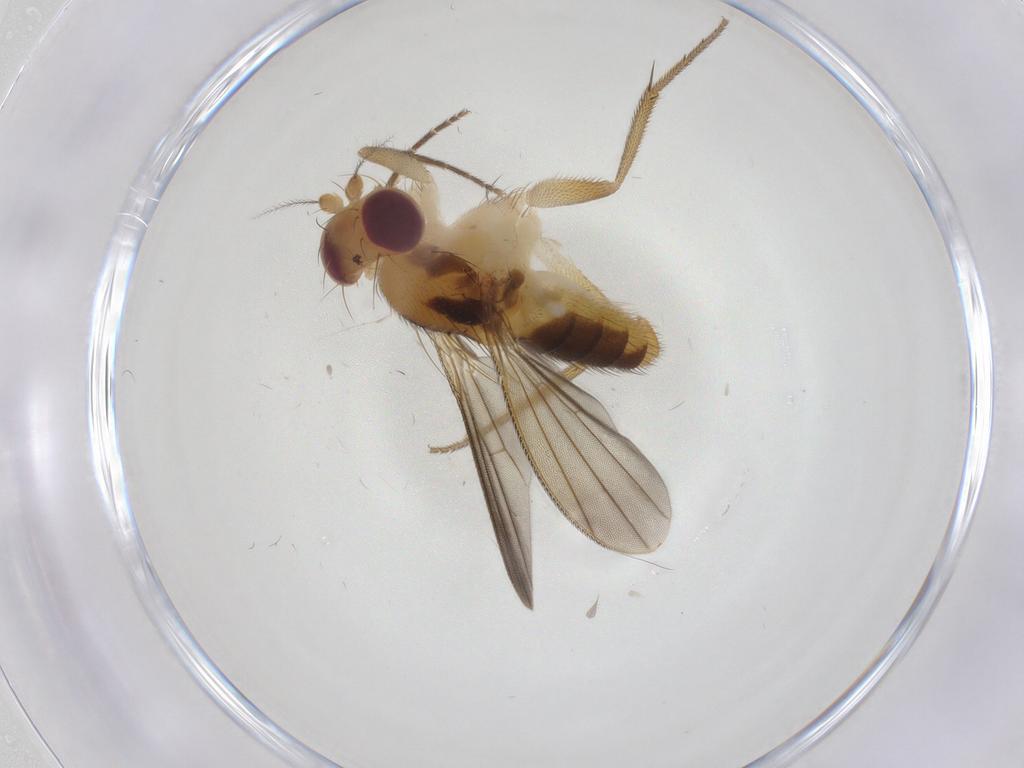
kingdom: Animalia
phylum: Arthropoda
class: Insecta
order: Diptera
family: Clusiidae
